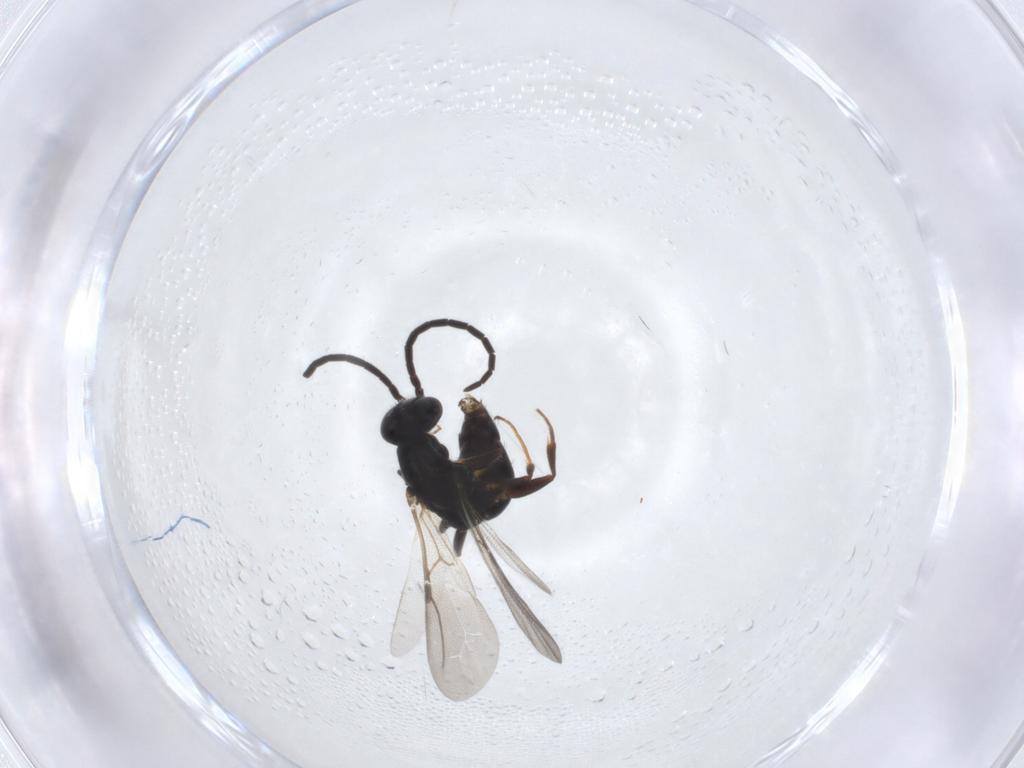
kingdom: Animalia
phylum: Arthropoda
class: Insecta
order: Hymenoptera
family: Bethylidae
